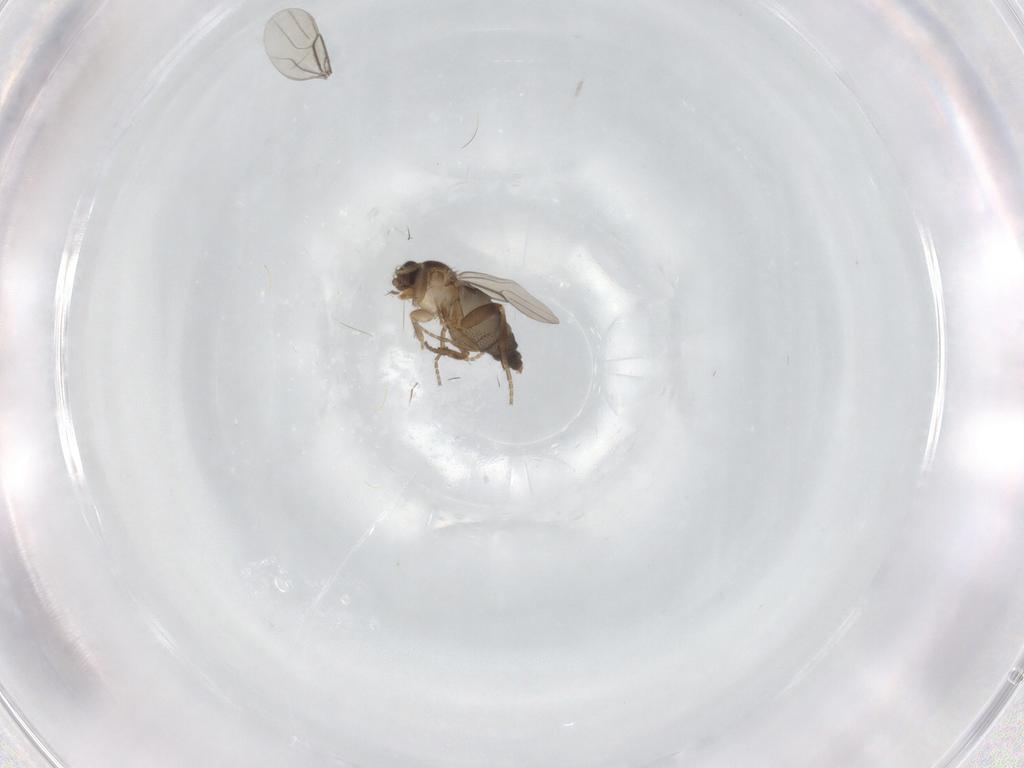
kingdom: Animalia
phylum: Arthropoda
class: Insecta
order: Diptera
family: Phoridae
